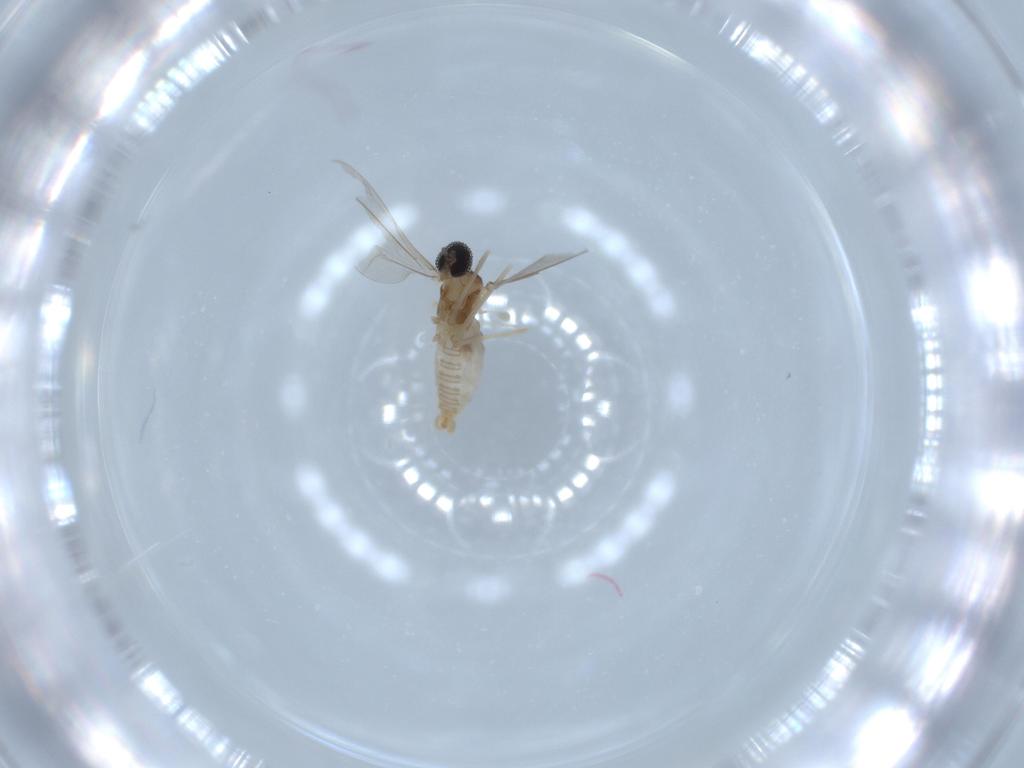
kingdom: Animalia
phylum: Arthropoda
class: Insecta
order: Diptera
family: Cecidomyiidae
